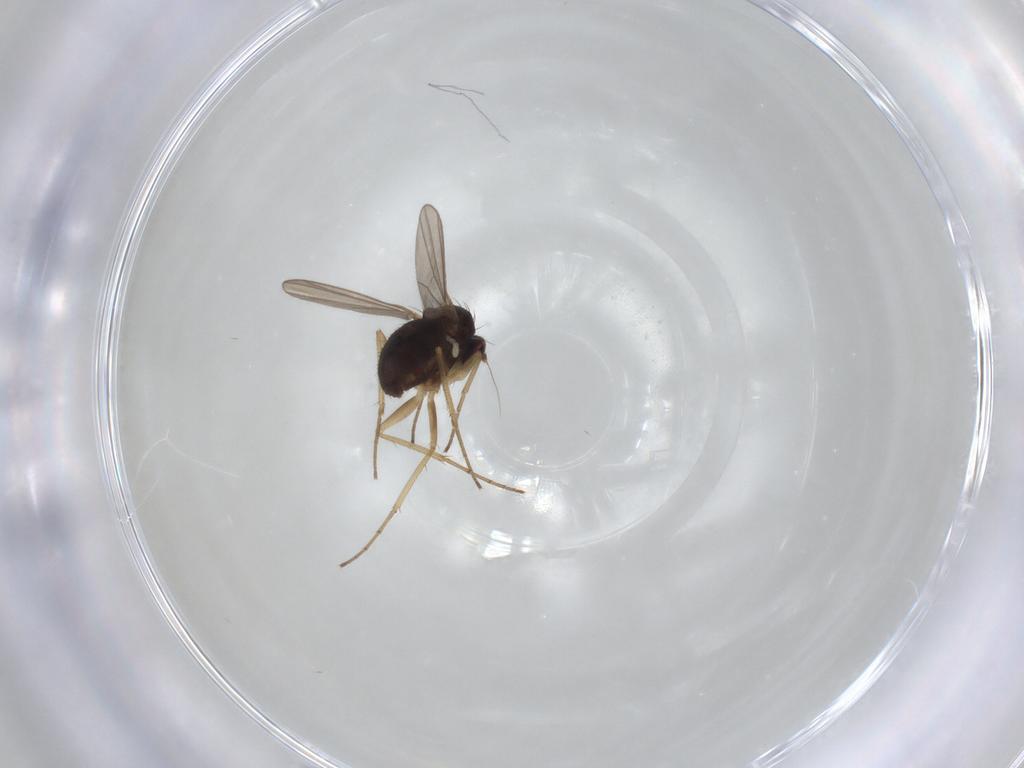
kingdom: Animalia
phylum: Arthropoda
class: Insecta
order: Diptera
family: Dolichopodidae
